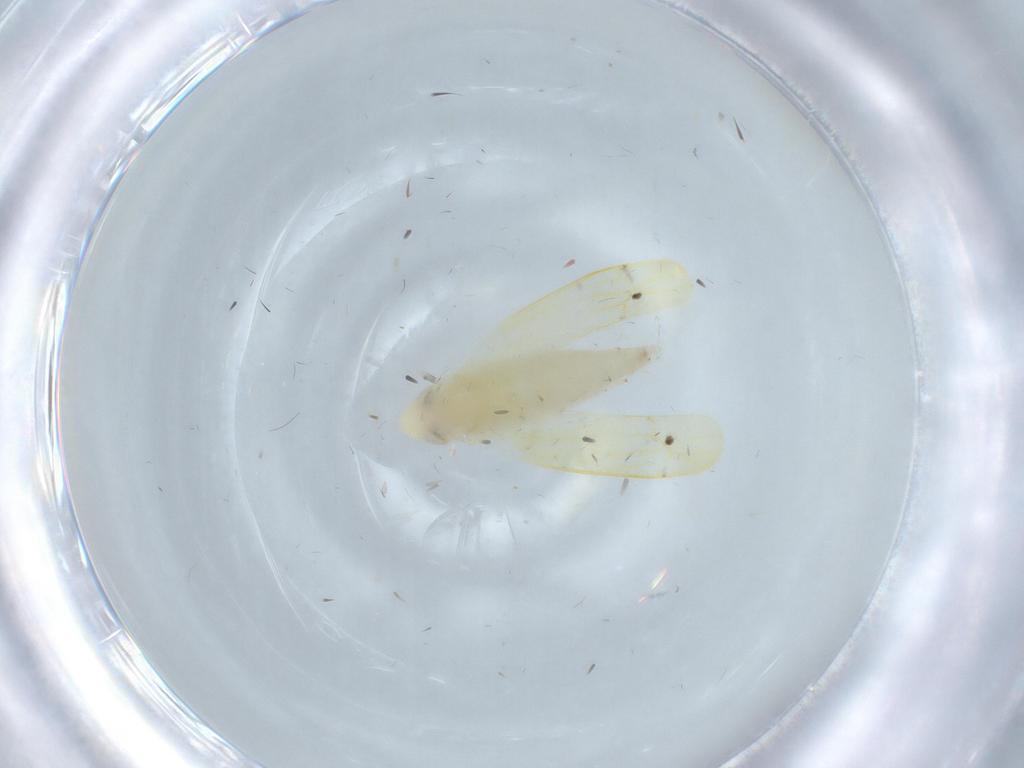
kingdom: Animalia
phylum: Arthropoda
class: Insecta
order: Hemiptera
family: Cicadellidae
